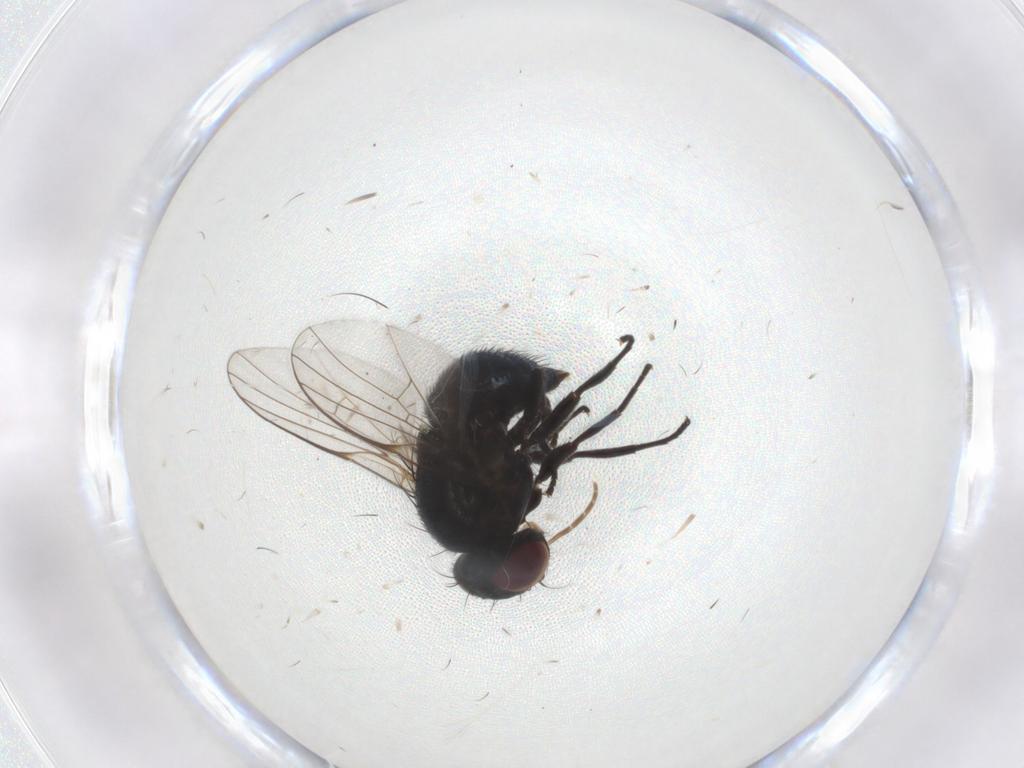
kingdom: Animalia
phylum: Arthropoda
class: Insecta
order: Diptera
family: Agromyzidae
